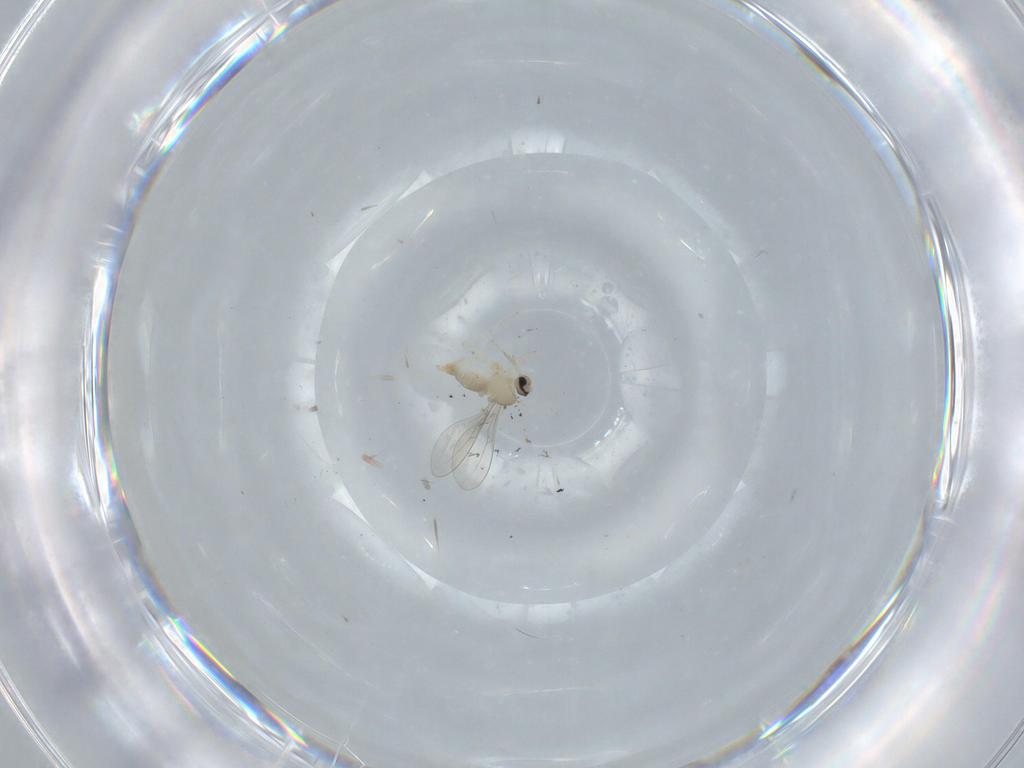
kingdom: Animalia
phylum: Arthropoda
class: Insecta
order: Diptera
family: Cecidomyiidae
